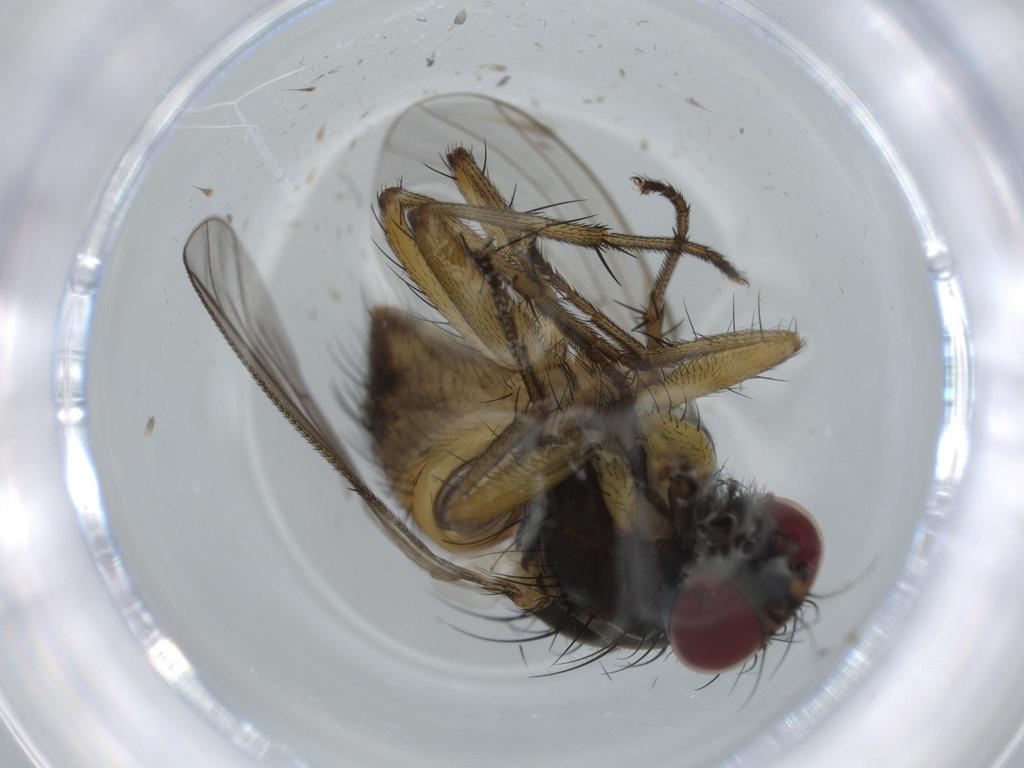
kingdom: Animalia
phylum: Arthropoda
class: Insecta
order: Diptera
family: Muscidae
